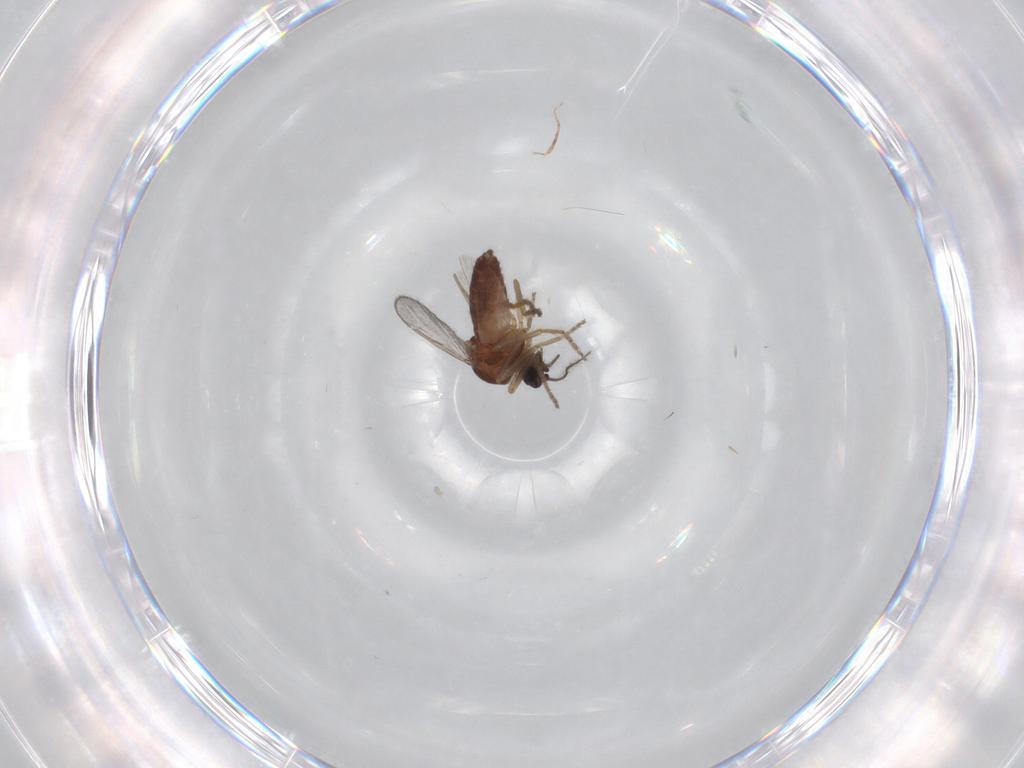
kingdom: Animalia
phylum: Arthropoda
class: Insecta
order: Diptera
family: Ceratopogonidae
